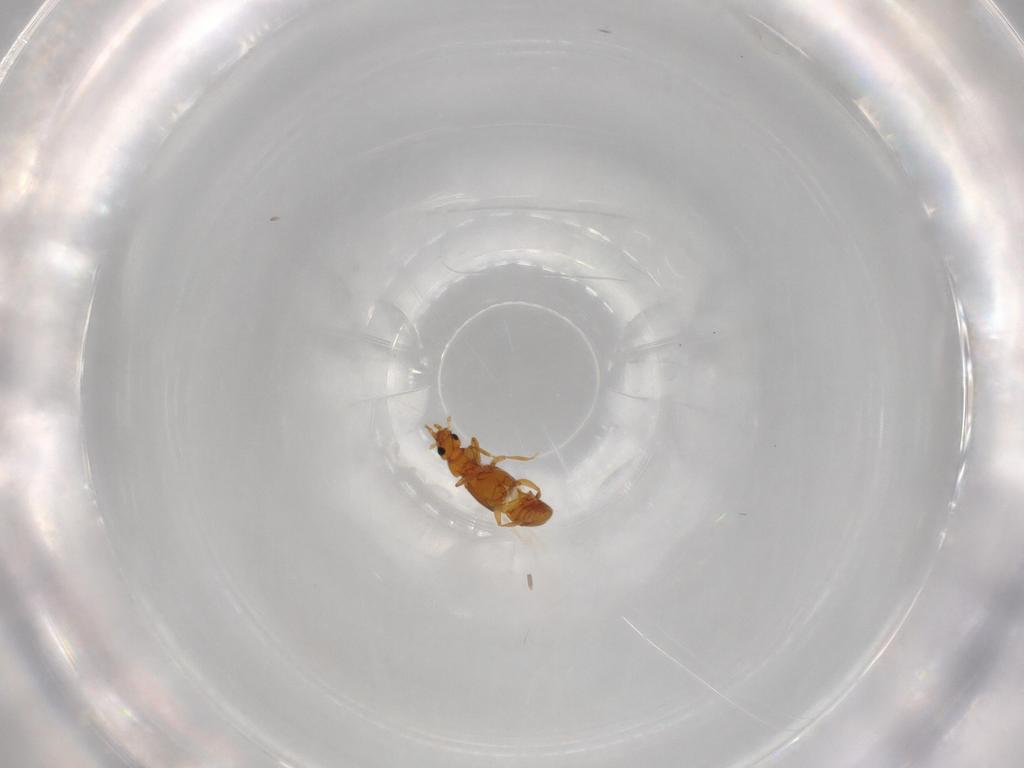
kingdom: Animalia
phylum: Arthropoda
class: Insecta
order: Coleoptera
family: Staphylinidae
